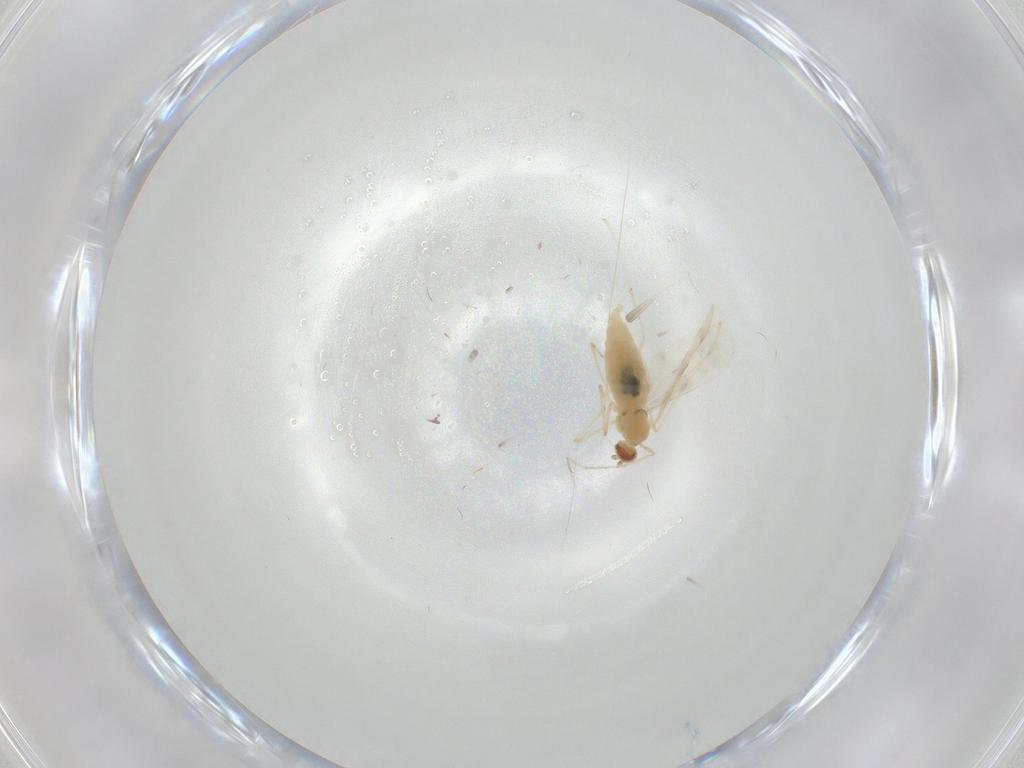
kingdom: Animalia
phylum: Arthropoda
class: Insecta
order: Diptera
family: Cecidomyiidae
